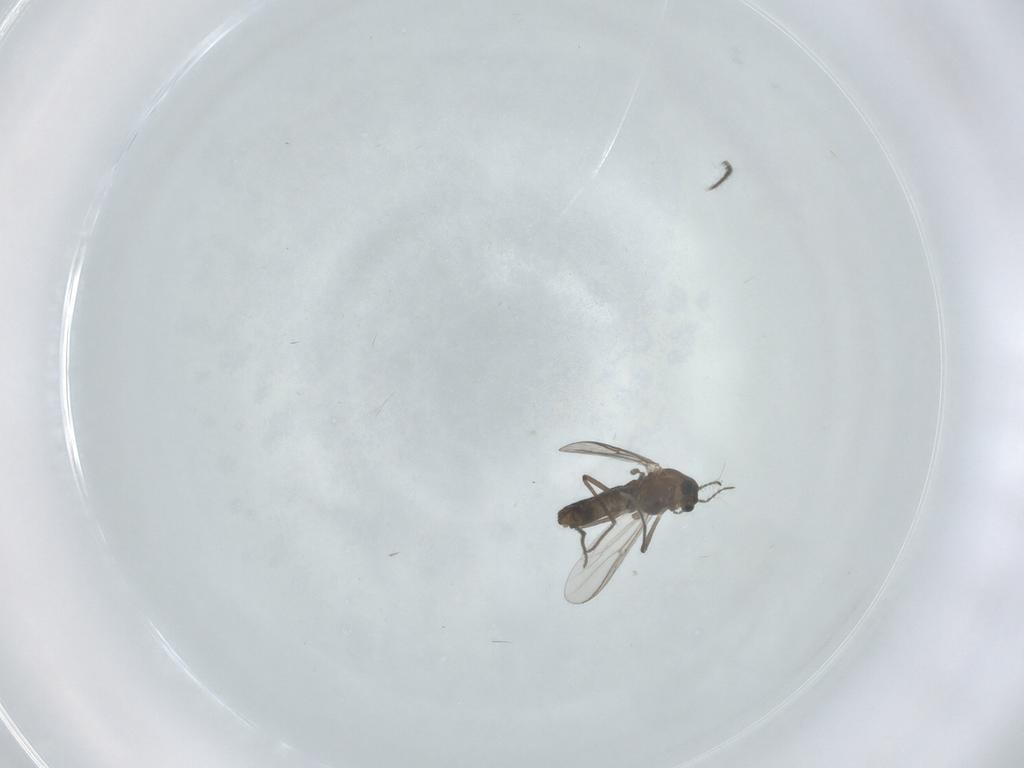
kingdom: Animalia
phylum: Arthropoda
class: Insecta
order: Diptera
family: Chironomidae
